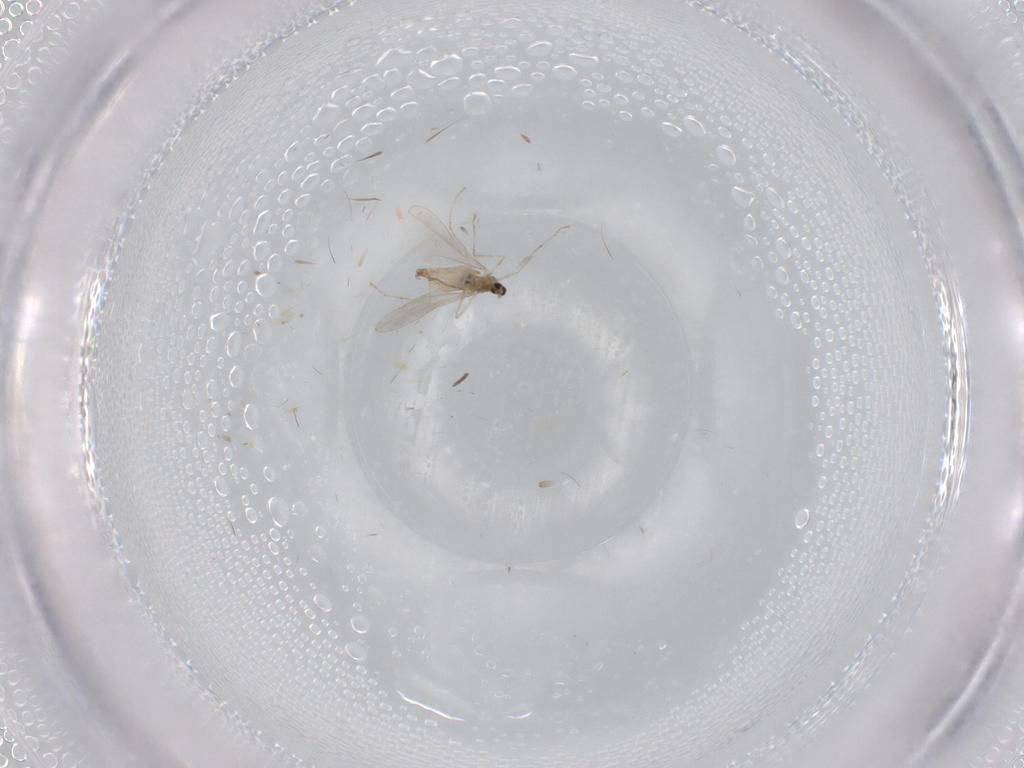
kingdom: Animalia
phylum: Arthropoda
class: Insecta
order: Diptera
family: Cecidomyiidae
